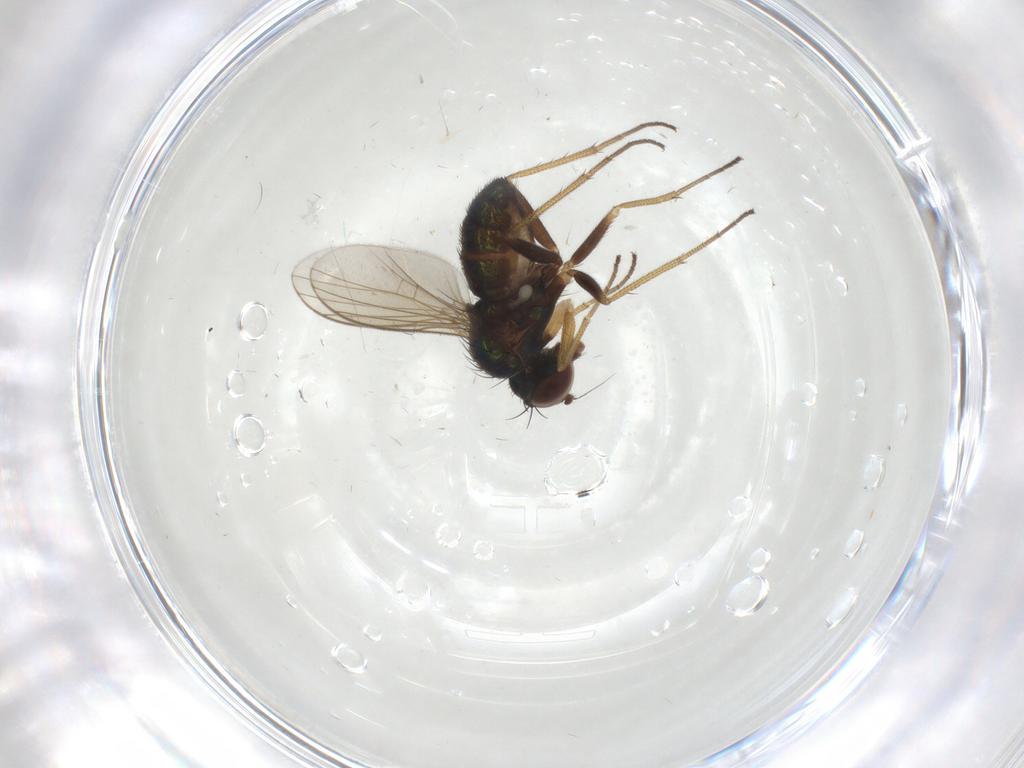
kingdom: Animalia
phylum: Arthropoda
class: Insecta
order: Diptera
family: Dolichopodidae
